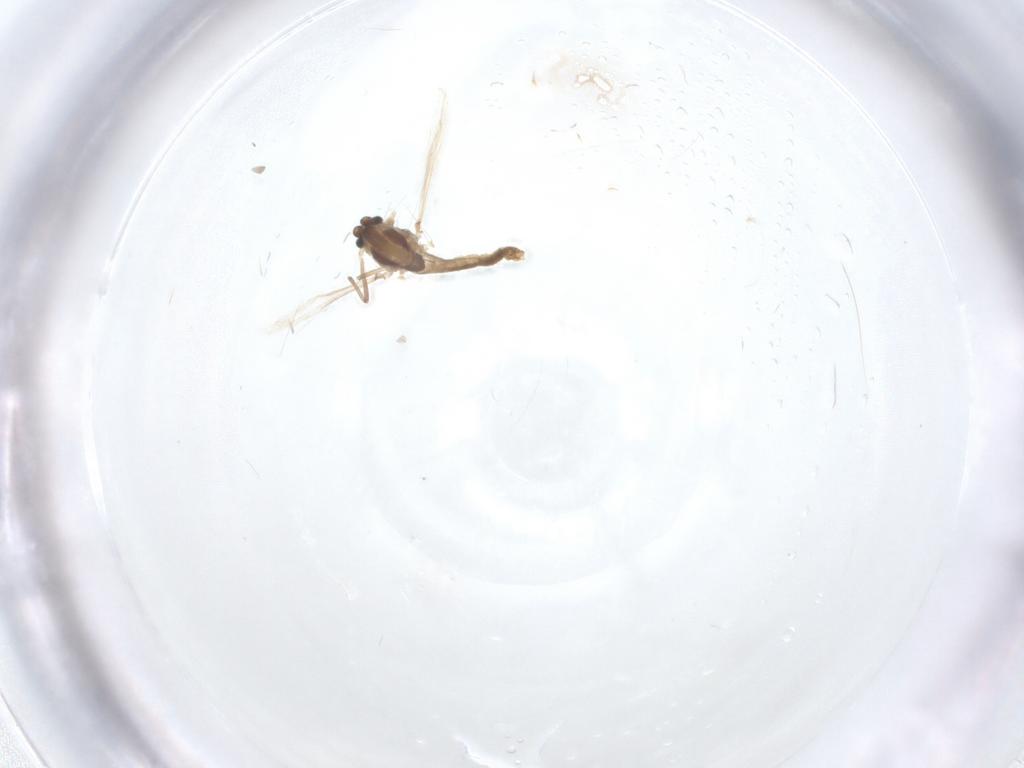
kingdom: Animalia
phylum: Arthropoda
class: Insecta
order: Diptera
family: Chironomidae
